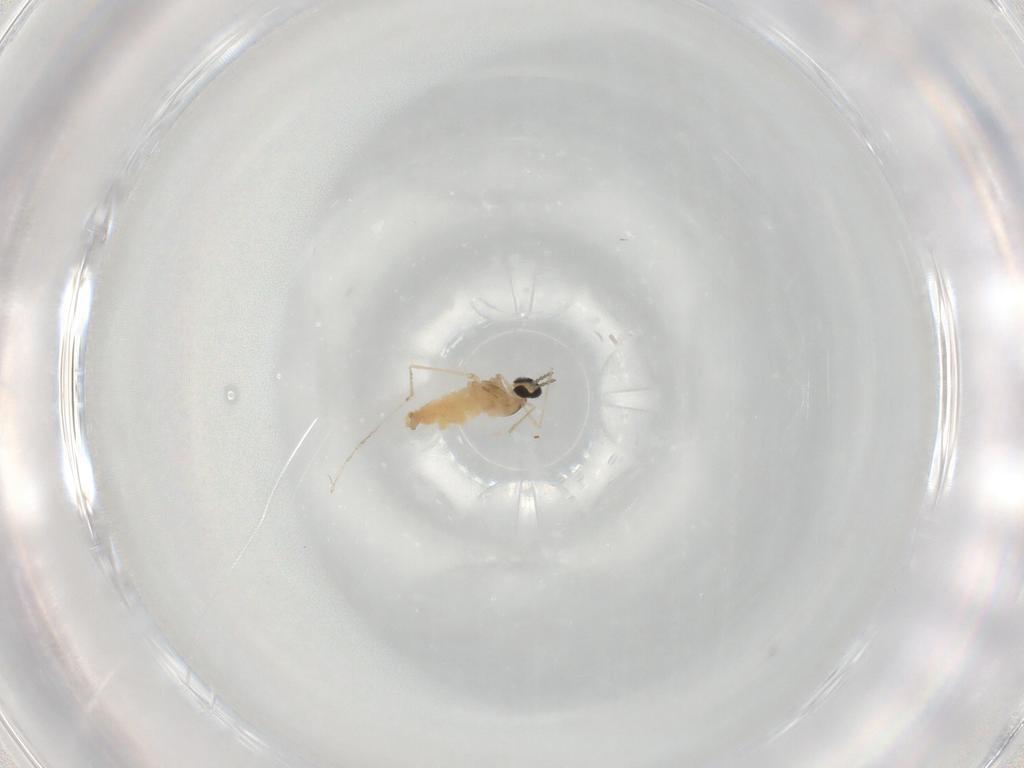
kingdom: Animalia
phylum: Arthropoda
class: Insecta
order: Diptera
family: Cecidomyiidae
